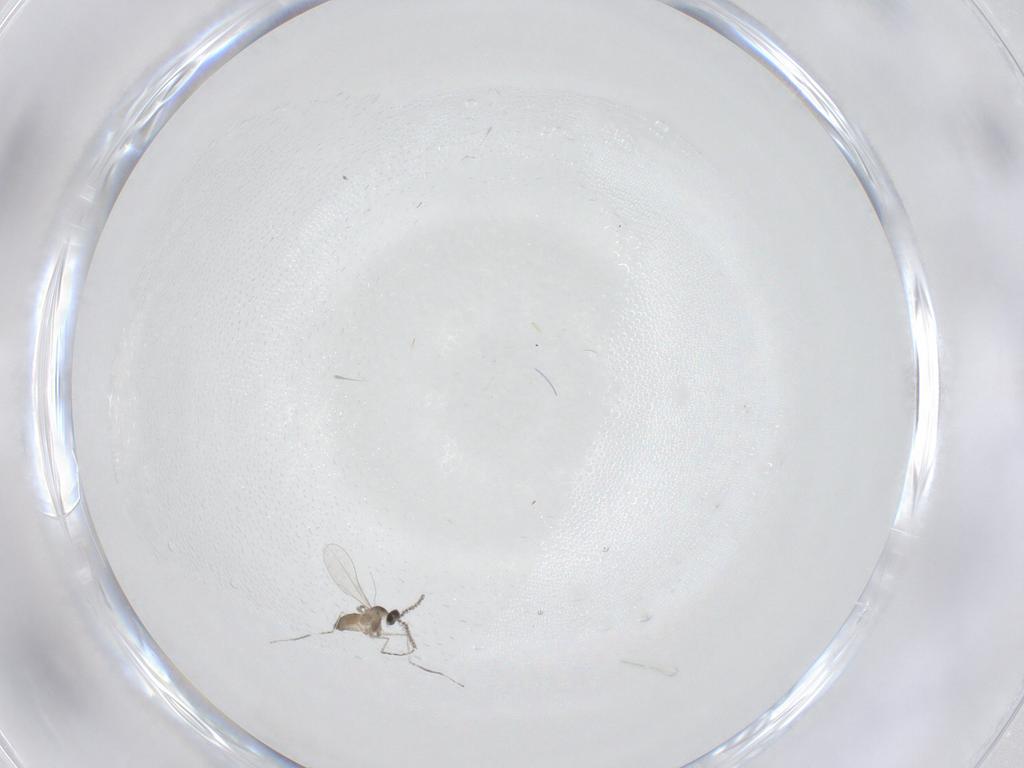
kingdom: Animalia
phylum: Arthropoda
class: Insecta
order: Diptera
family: Cecidomyiidae
